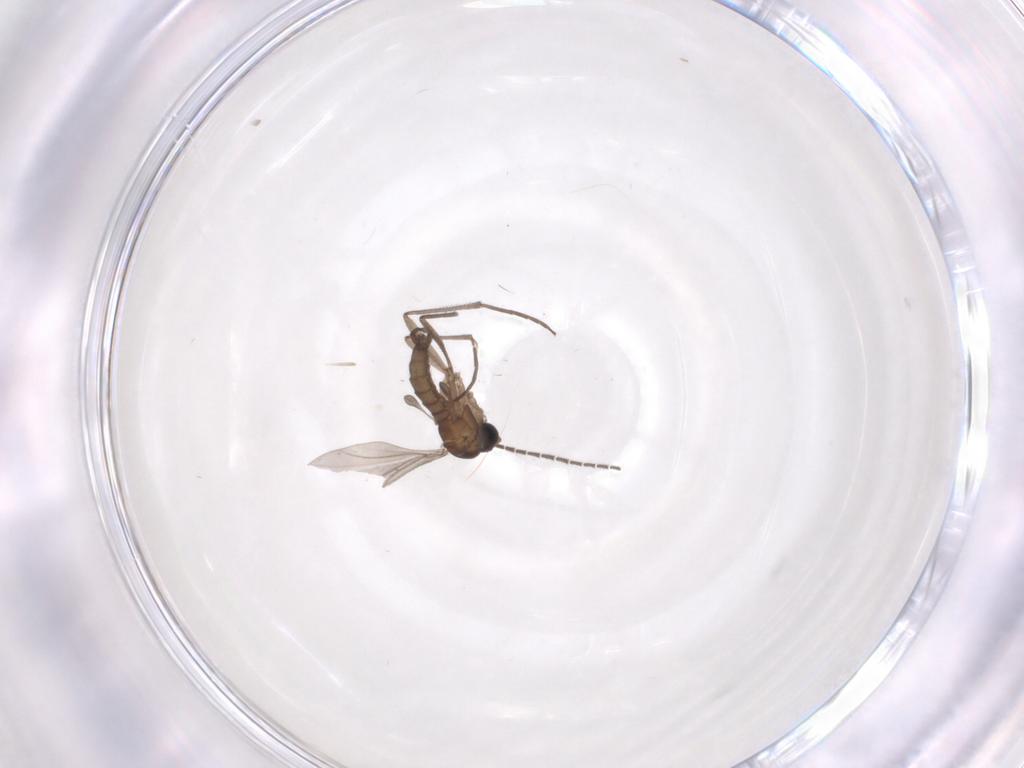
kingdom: Animalia
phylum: Arthropoda
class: Insecta
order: Diptera
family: Sciaridae
